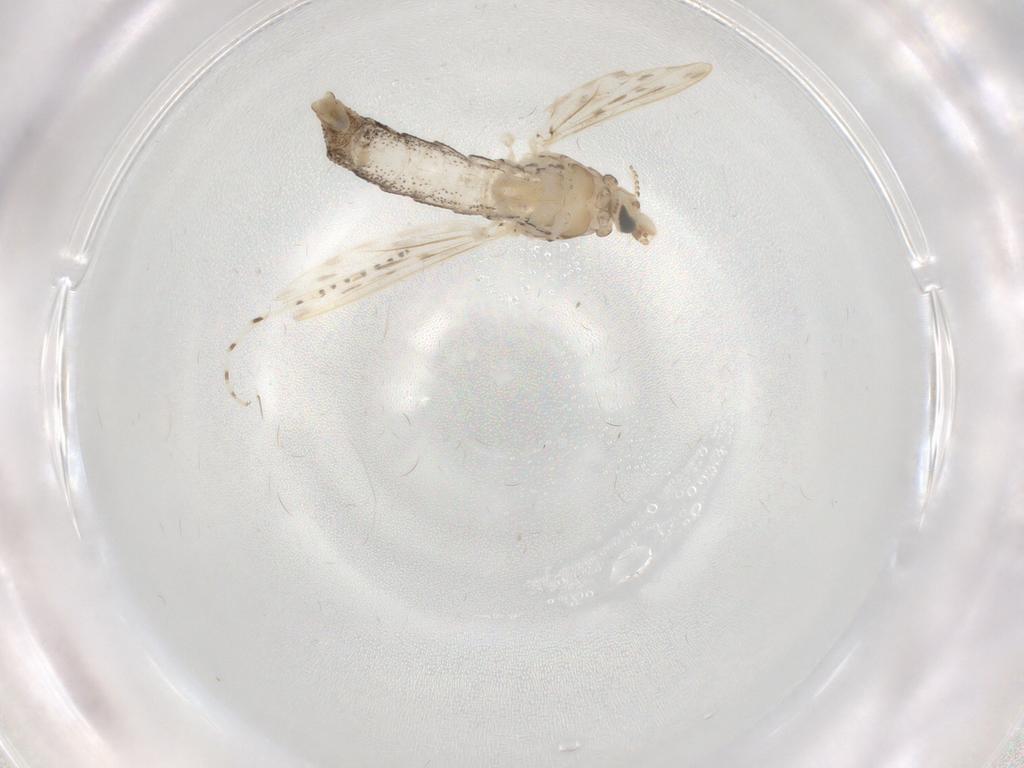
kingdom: Animalia
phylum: Arthropoda
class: Insecta
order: Diptera
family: Chaoboridae
